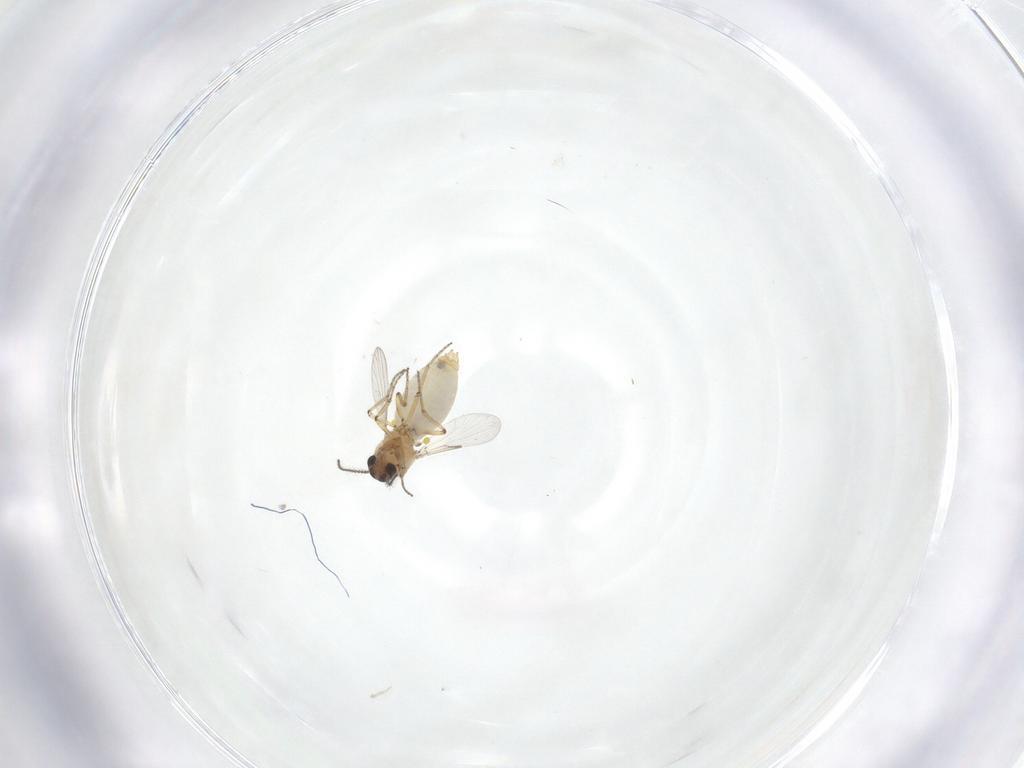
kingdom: Animalia
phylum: Arthropoda
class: Insecta
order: Diptera
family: Ceratopogonidae
